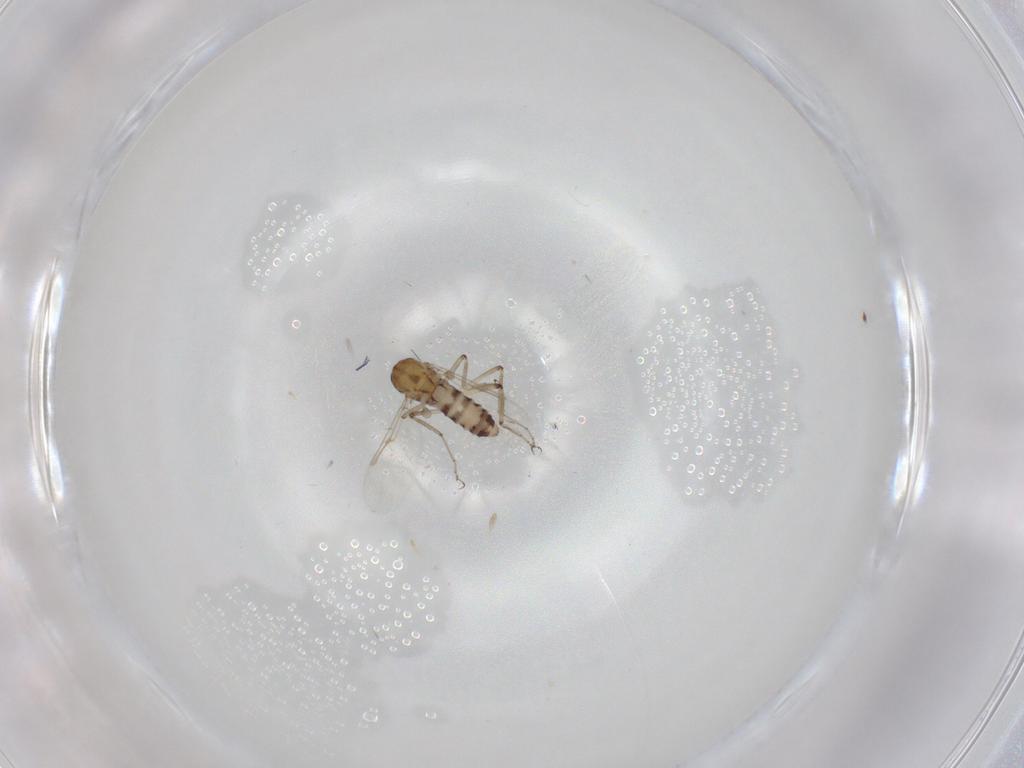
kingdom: Animalia
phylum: Arthropoda
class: Insecta
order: Diptera
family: Ceratopogonidae
